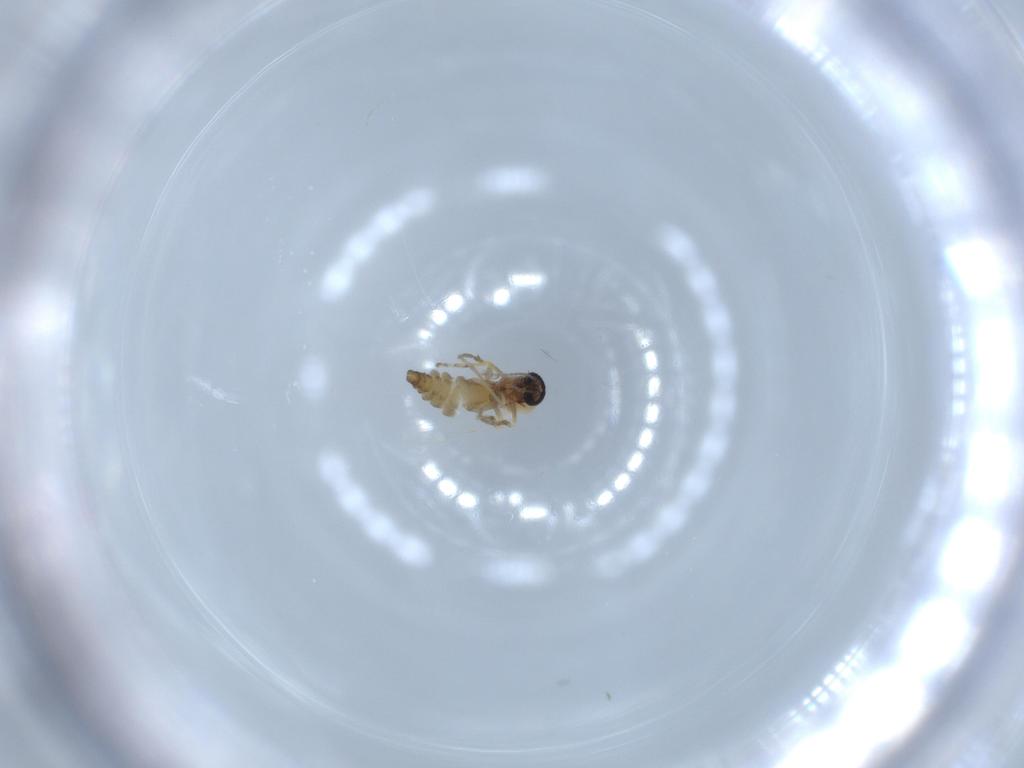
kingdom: Animalia
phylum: Arthropoda
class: Insecta
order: Diptera
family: Ceratopogonidae
